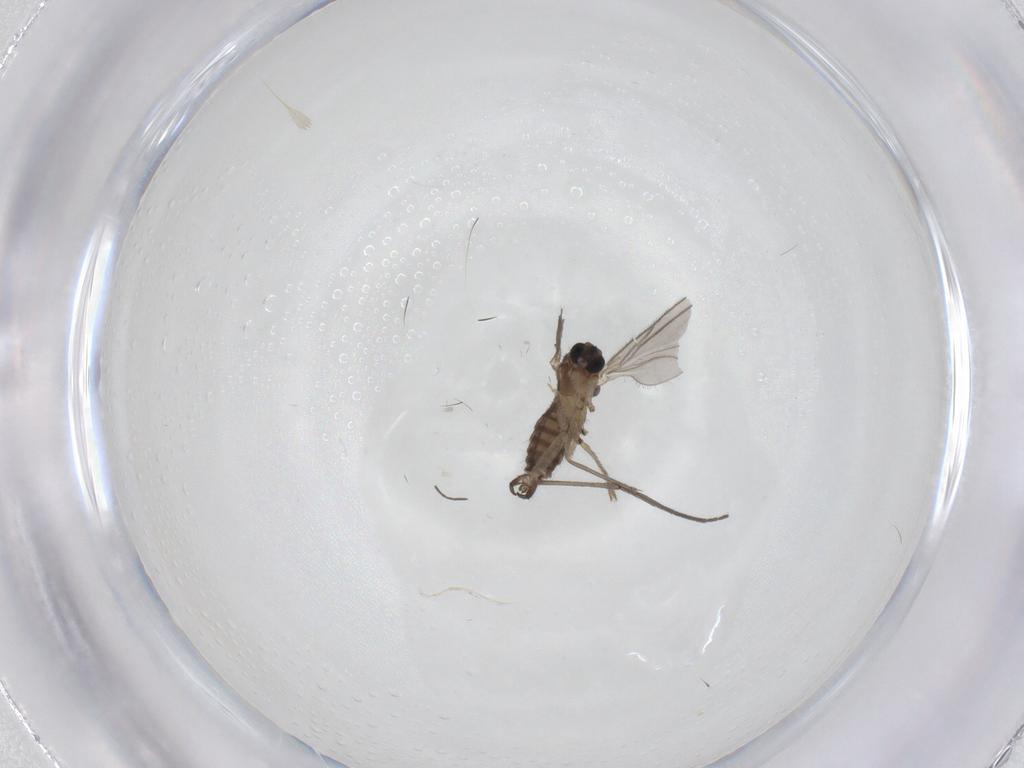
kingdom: Animalia
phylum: Arthropoda
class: Insecta
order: Diptera
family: Sciaridae
